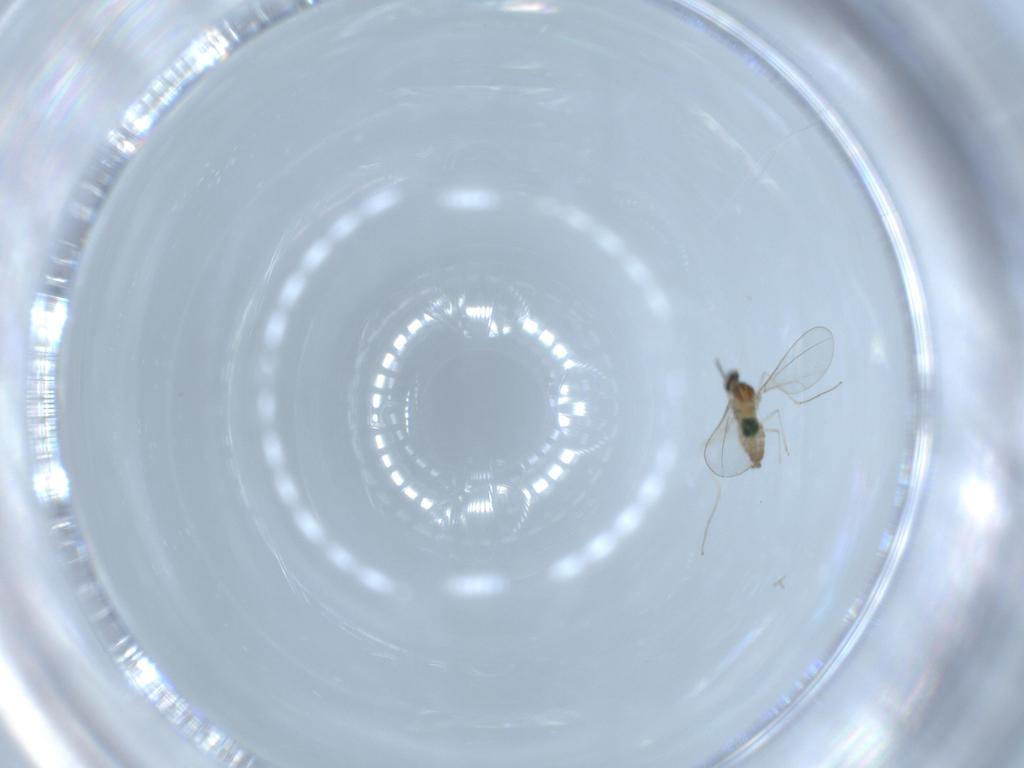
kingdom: Animalia
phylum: Arthropoda
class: Insecta
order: Diptera
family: Cecidomyiidae
